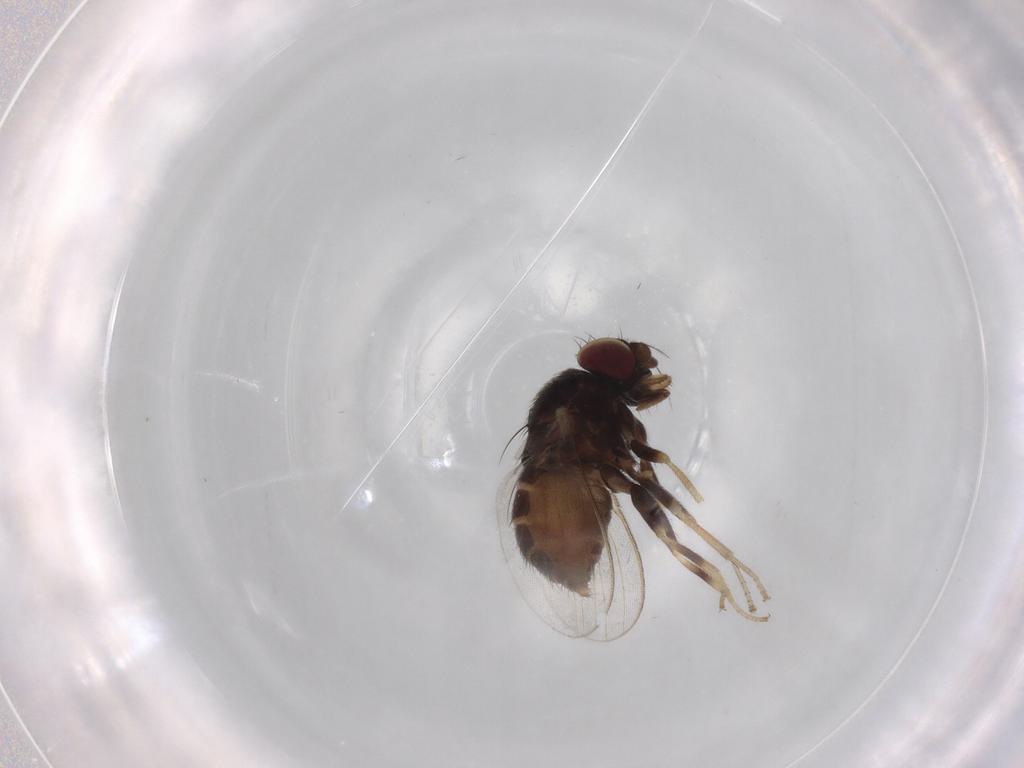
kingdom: Animalia
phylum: Arthropoda
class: Insecta
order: Diptera
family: Milichiidae
